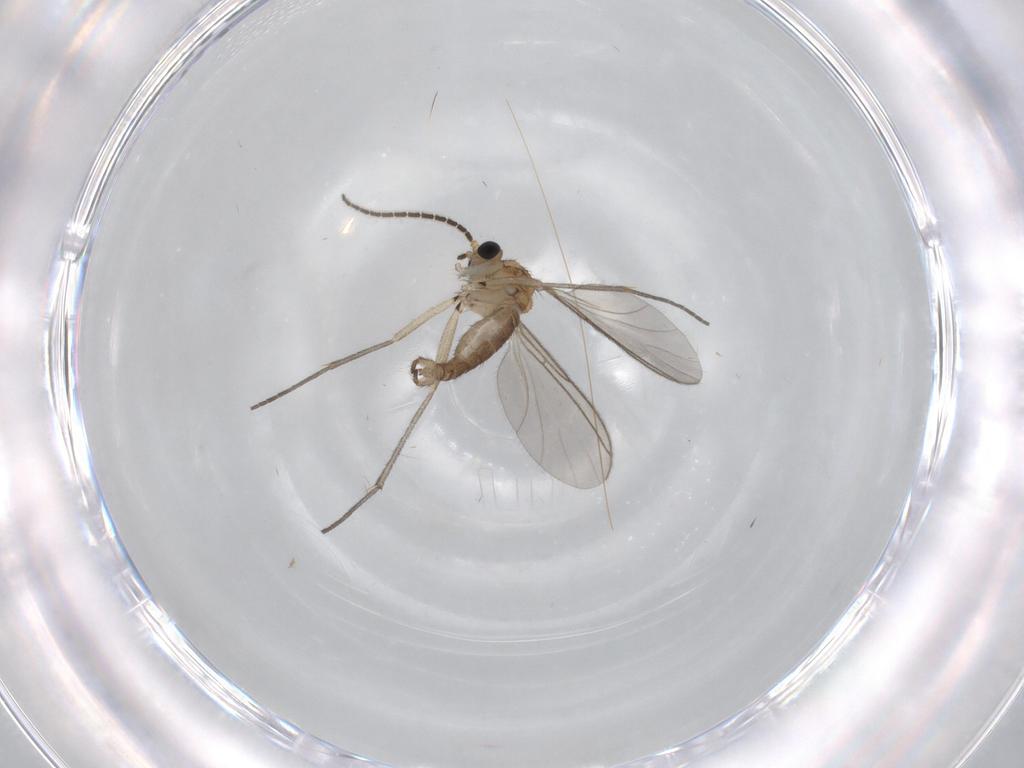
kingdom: Animalia
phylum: Arthropoda
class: Insecta
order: Diptera
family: Sciaridae
